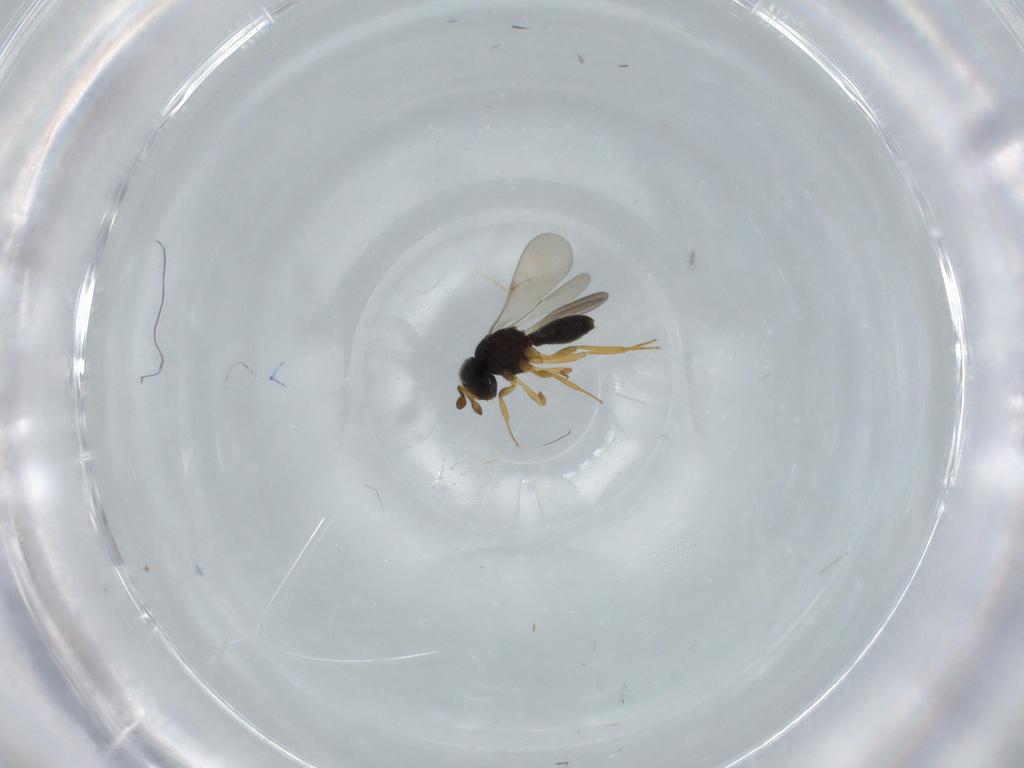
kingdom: Animalia
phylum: Arthropoda
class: Insecta
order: Hymenoptera
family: Scelionidae
